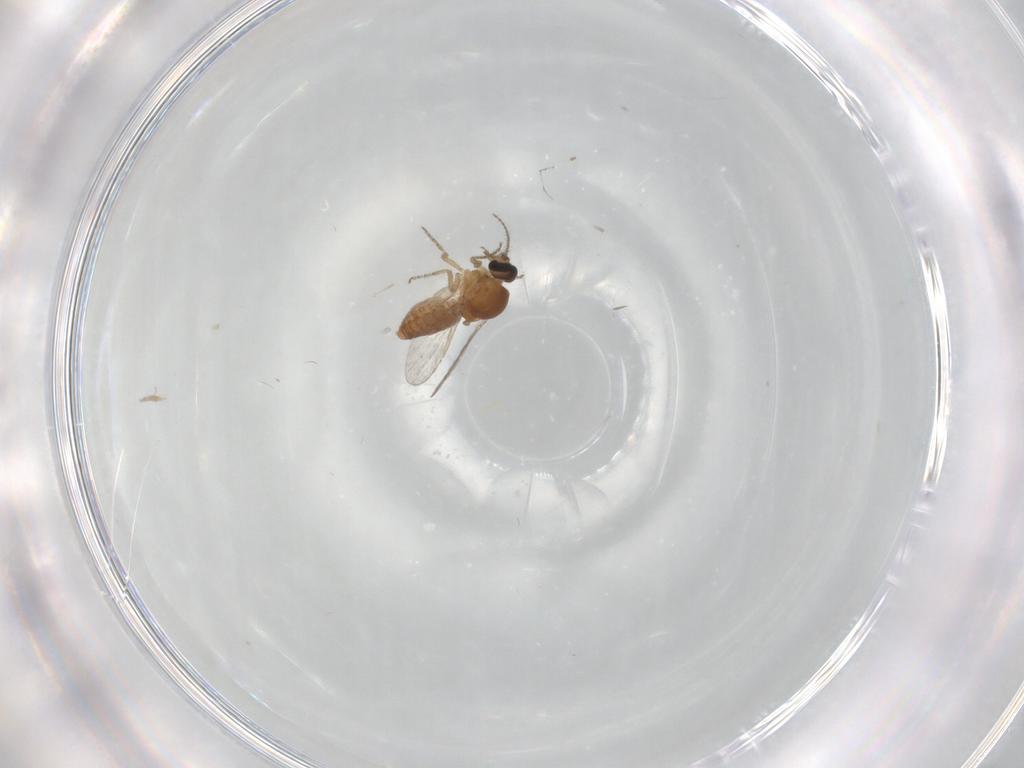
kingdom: Animalia
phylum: Arthropoda
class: Insecta
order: Diptera
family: Ceratopogonidae
